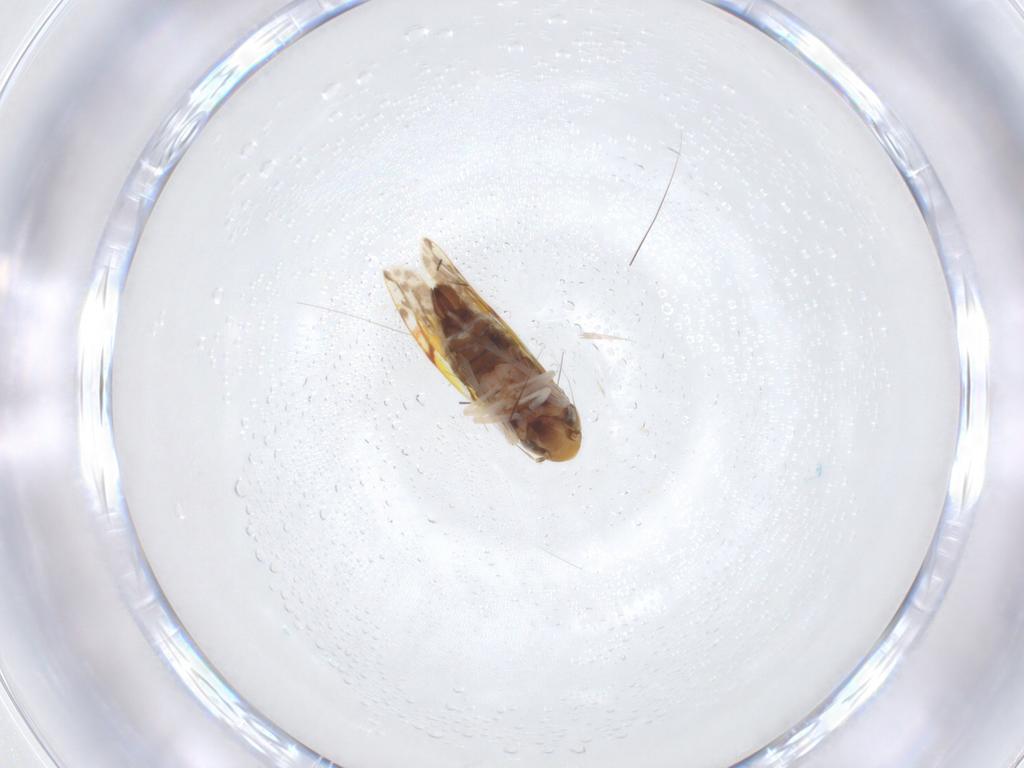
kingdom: Animalia
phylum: Arthropoda
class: Insecta
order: Hemiptera
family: Cicadellidae
